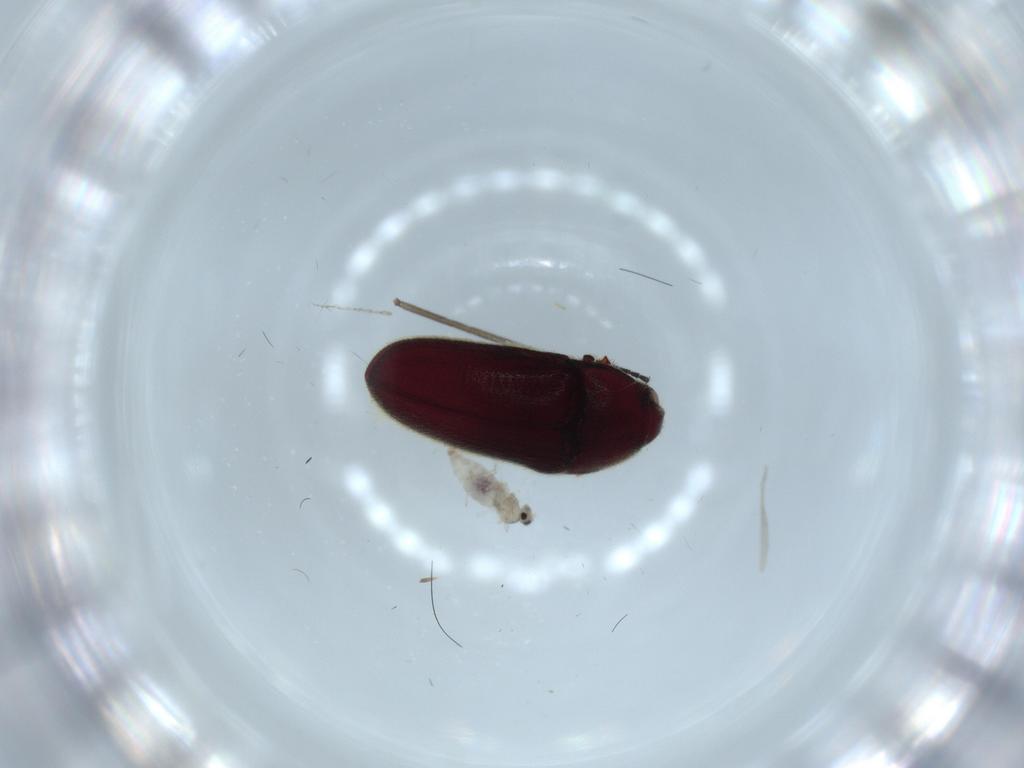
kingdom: Animalia
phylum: Arthropoda
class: Insecta
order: Diptera
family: Cecidomyiidae
